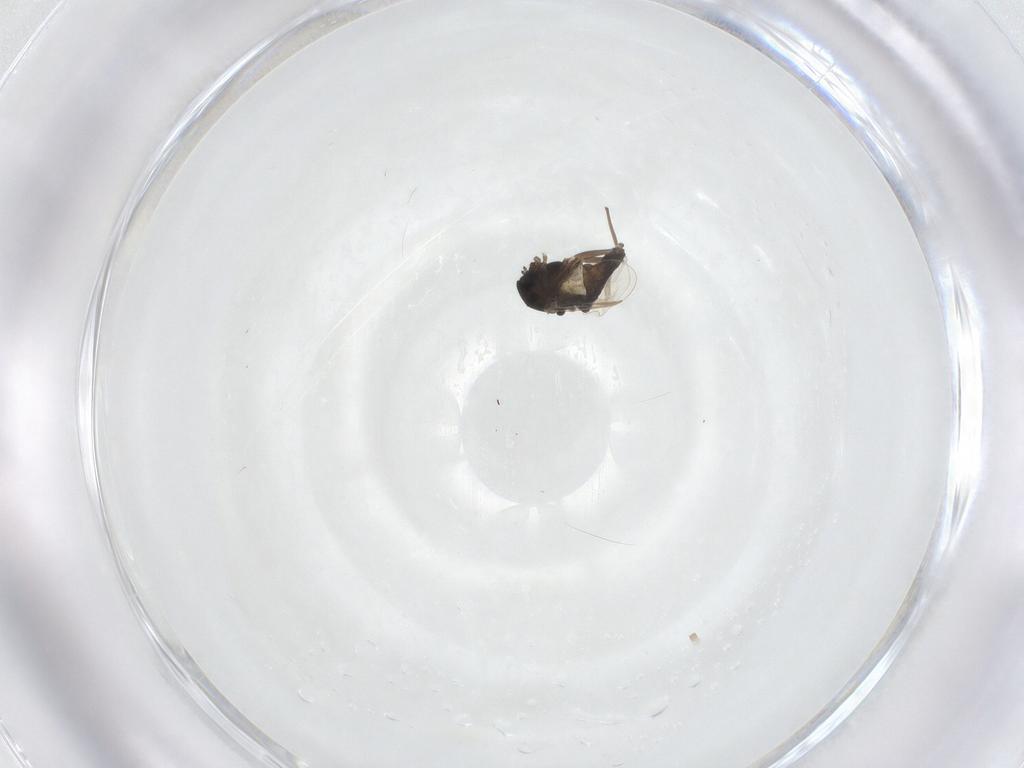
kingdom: Animalia
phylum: Arthropoda
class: Insecta
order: Diptera
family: Chironomidae
